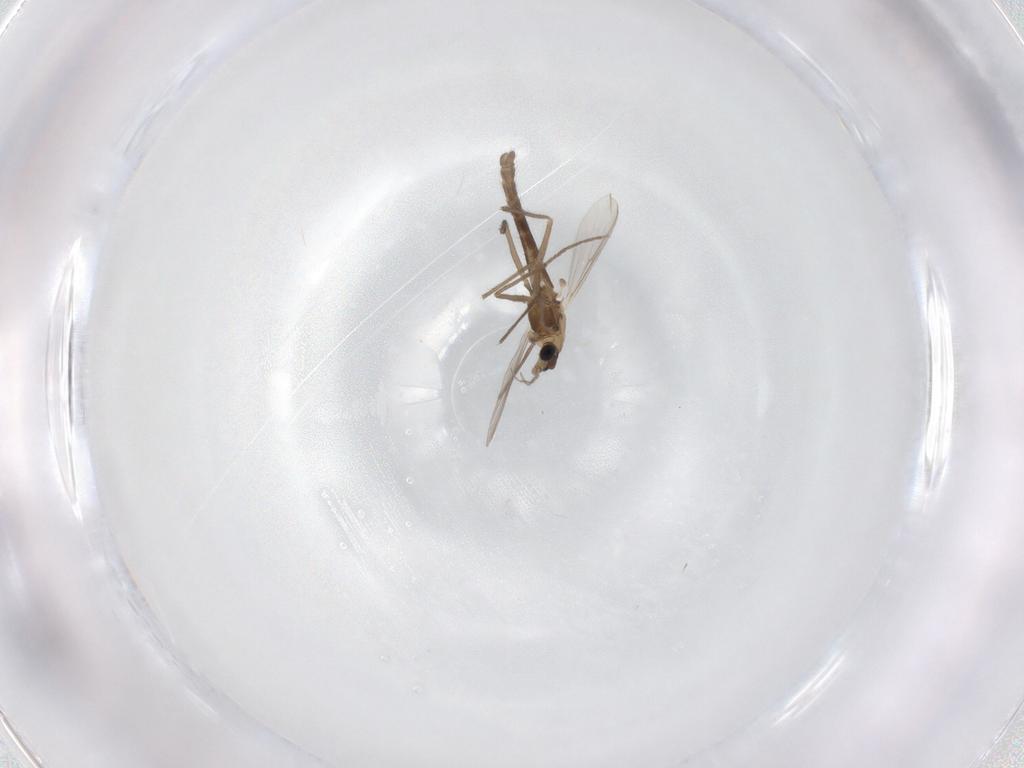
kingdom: Animalia
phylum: Arthropoda
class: Insecta
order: Diptera
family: Chironomidae
